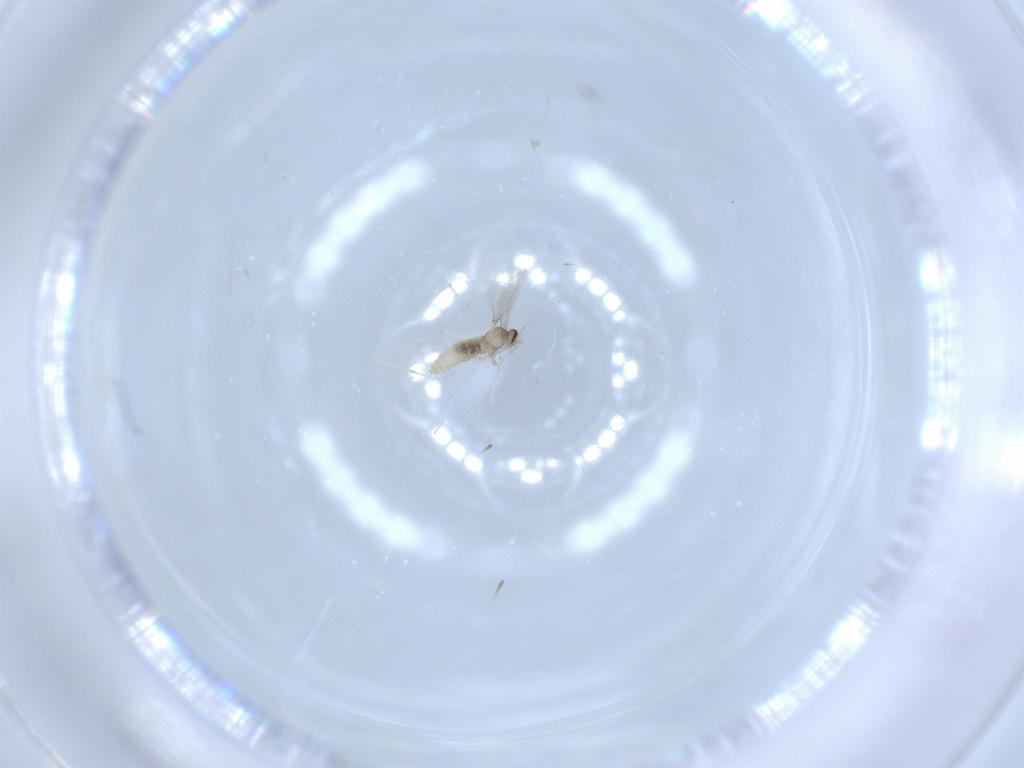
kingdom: Animalia
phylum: Arthropoda
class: Insecta
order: Diptera
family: Cecidomyiidae
